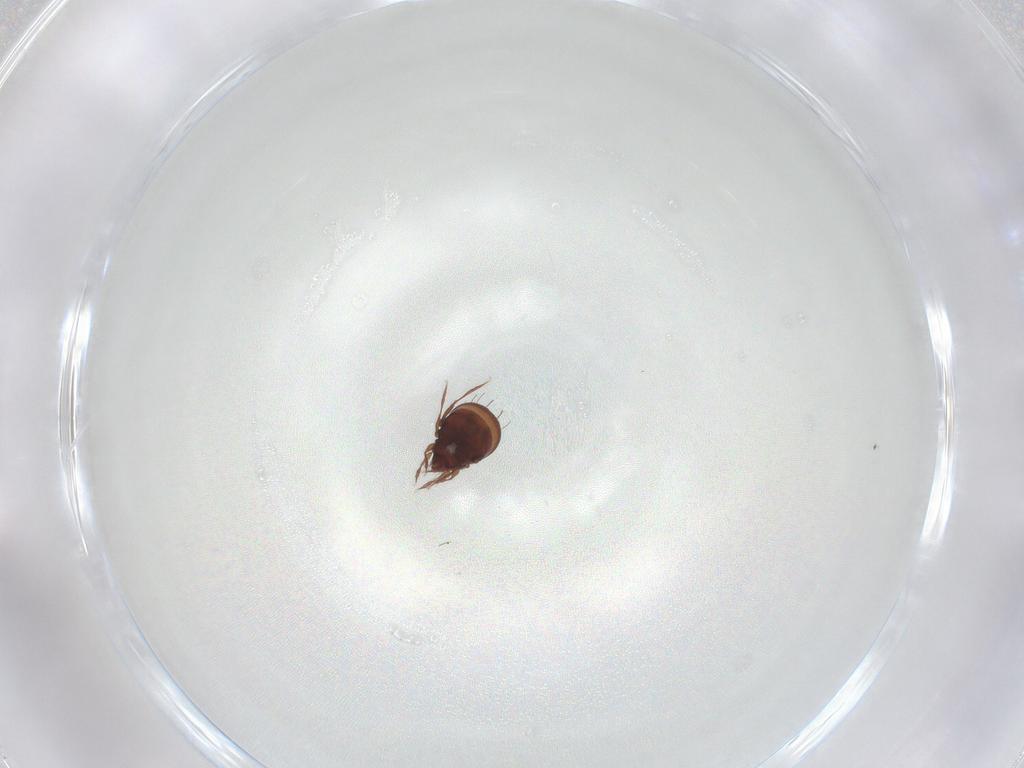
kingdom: Animalia
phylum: Arthropoda
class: Arachnida
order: Sarcoptiformes
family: Caloppiidae
